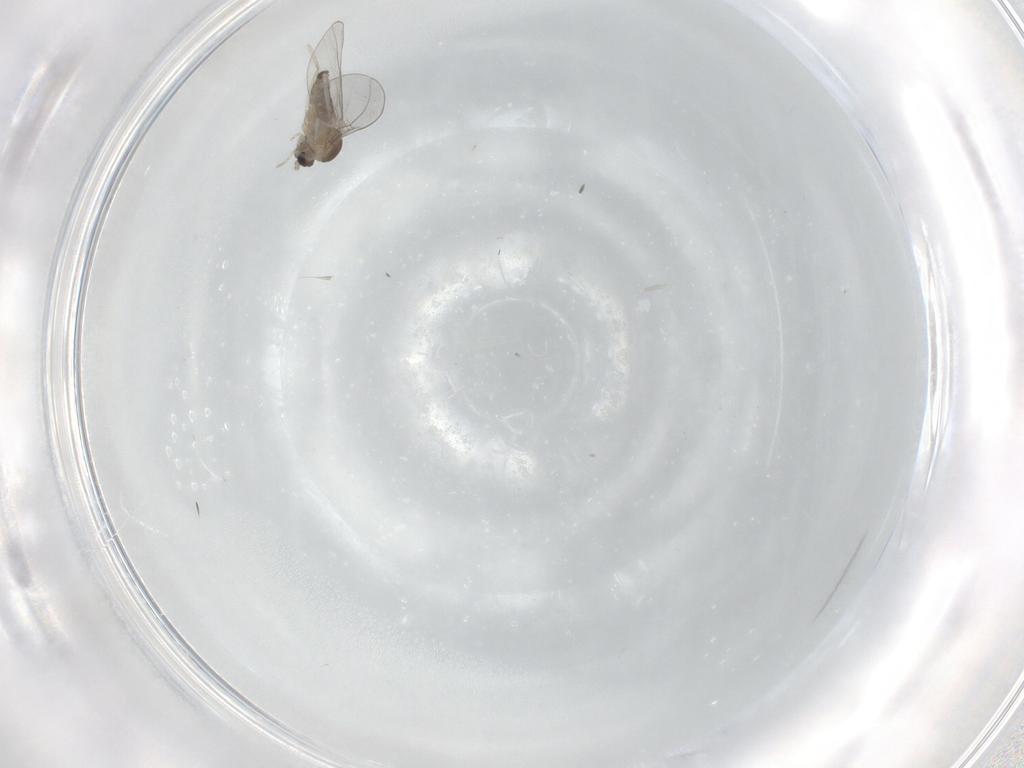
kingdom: Animalia
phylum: Arthropoda
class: Insecta
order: Diptera
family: Cecidomyiidae
